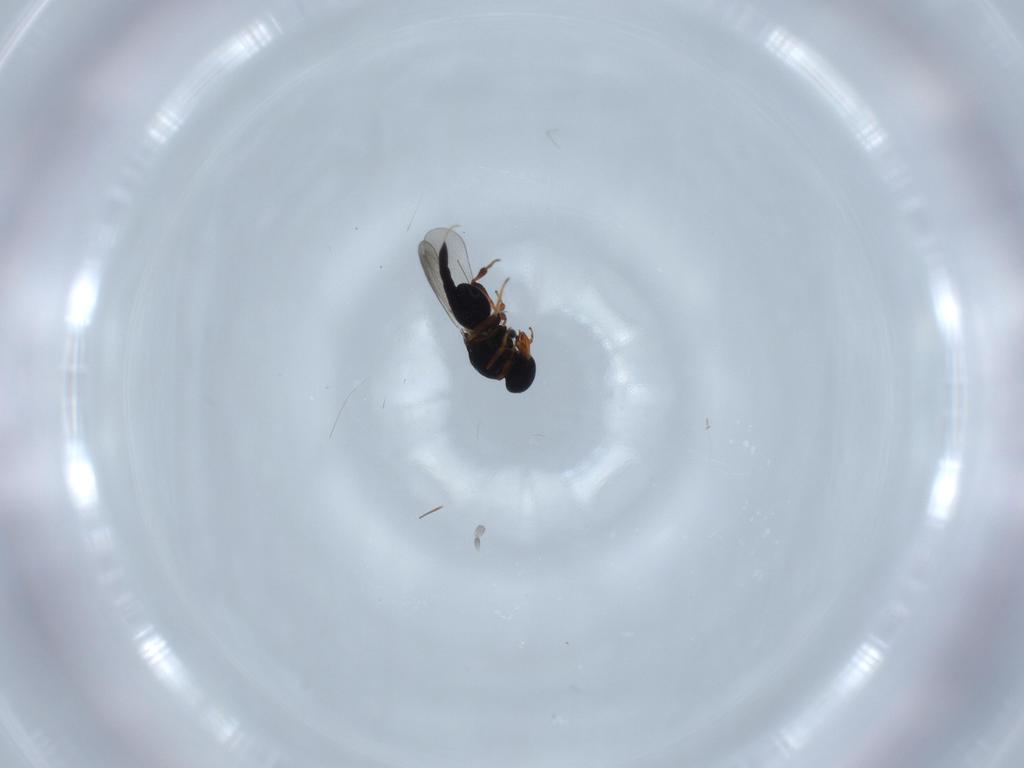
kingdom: Animalia
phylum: Arthropoda
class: Insecta
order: Hymenoptera
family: Platygastridae
